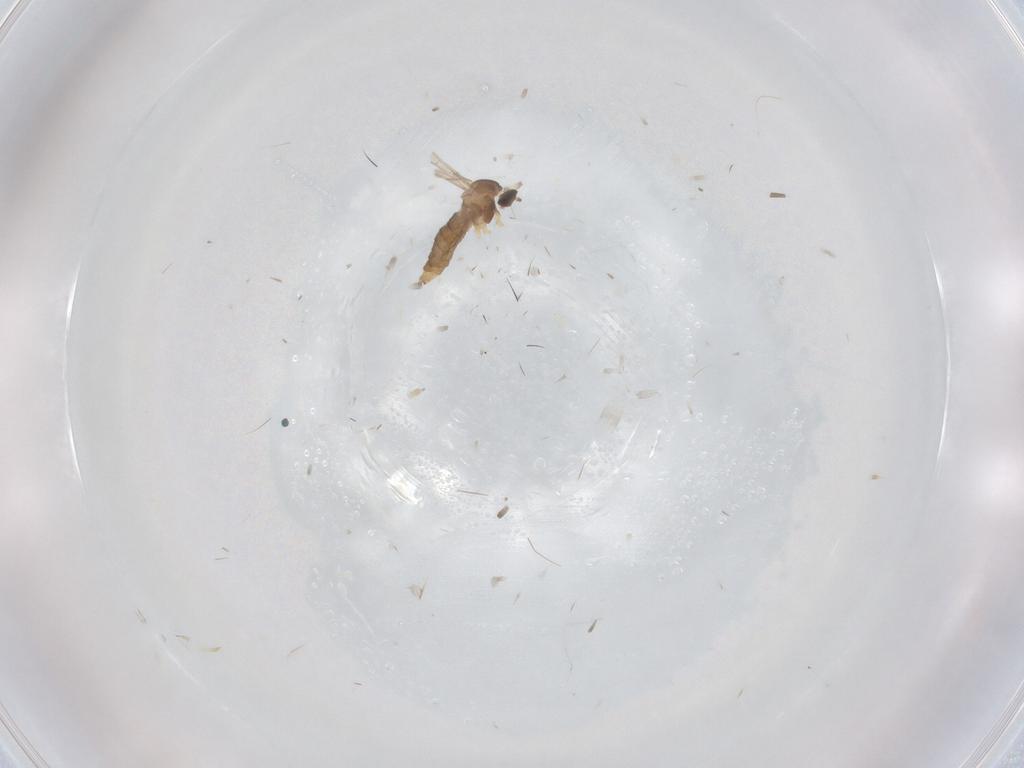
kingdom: Animalia
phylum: Arthropoda
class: Insecta
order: Diptera
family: Cecidomyiidae
